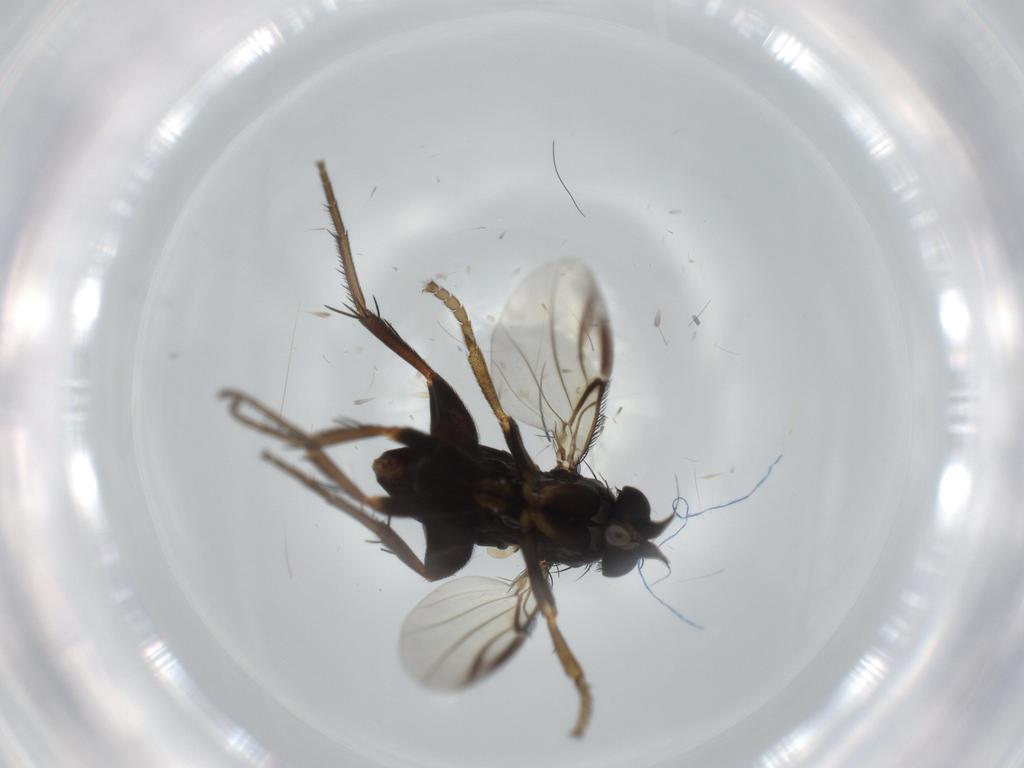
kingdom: Animalia
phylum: Arthropoda
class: Insecta
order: Diptera
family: Phoridae
